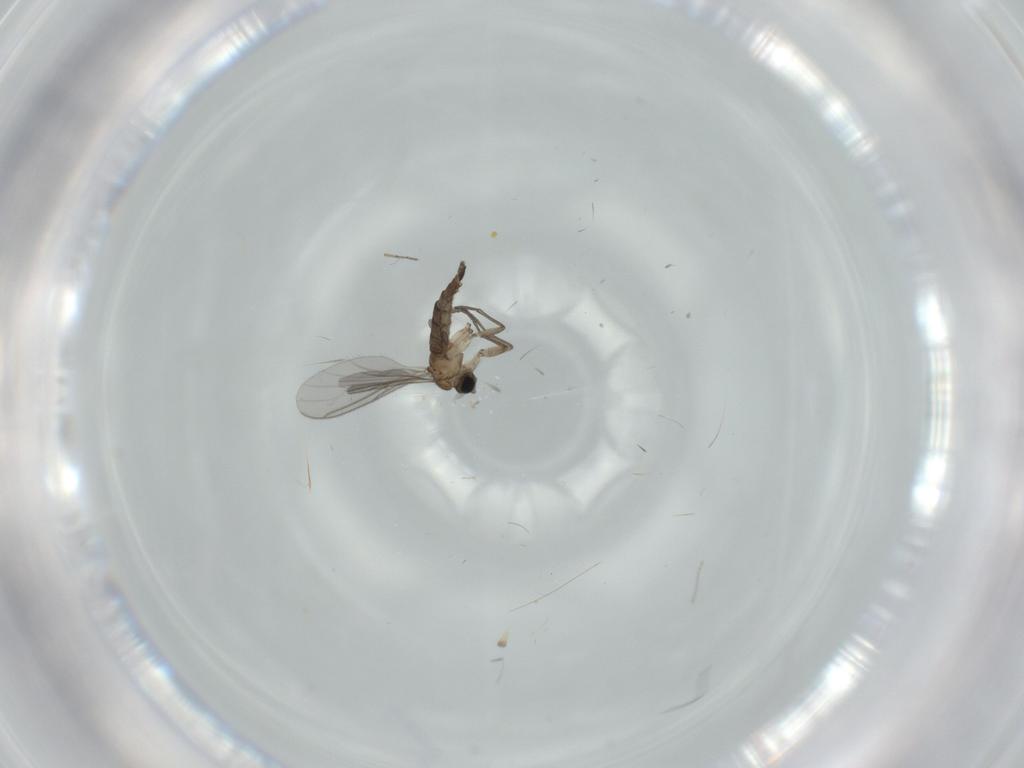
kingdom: Animalia
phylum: Arthropoda
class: Insecta
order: Diptera
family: Sciaridae
